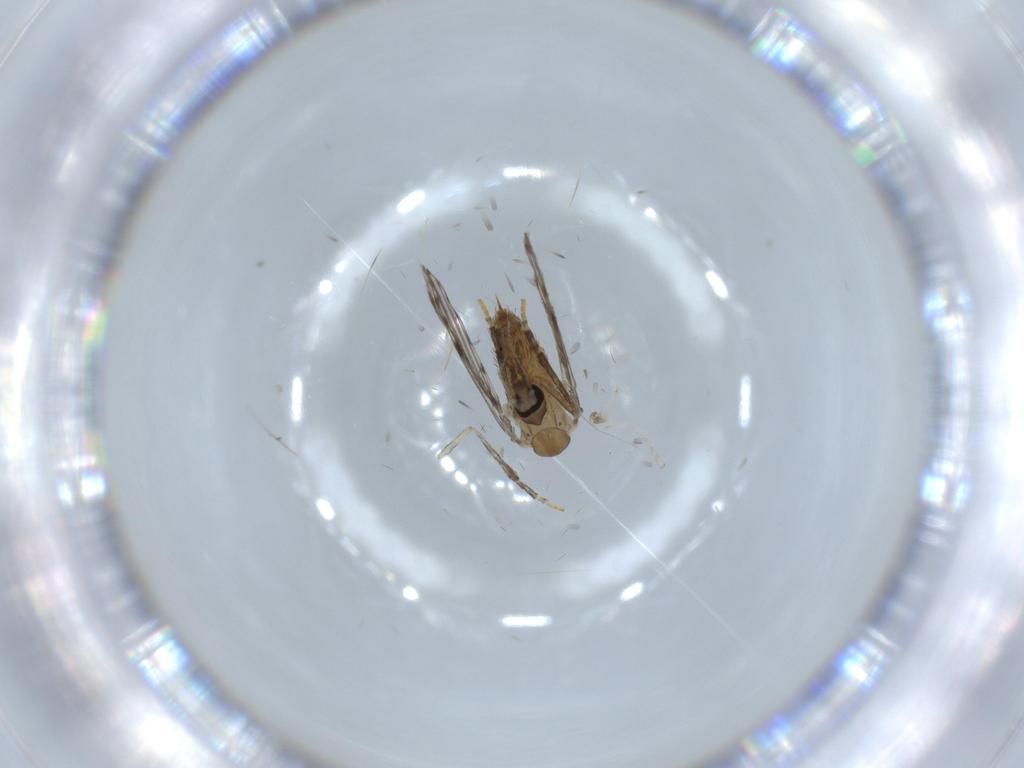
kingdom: Animalia
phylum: Arthropoda
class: Insecta
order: Diptera
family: Psychodidae
